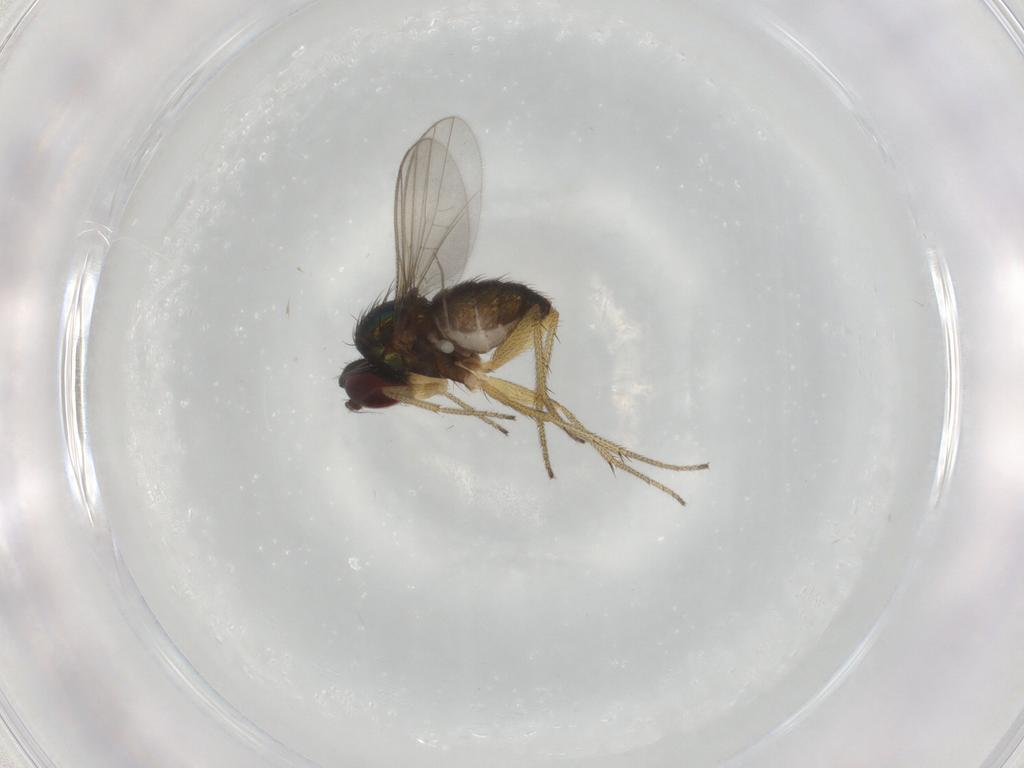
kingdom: Animalia
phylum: Arthropoda
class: Insecta
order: Diptera
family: Dolichopodidae
